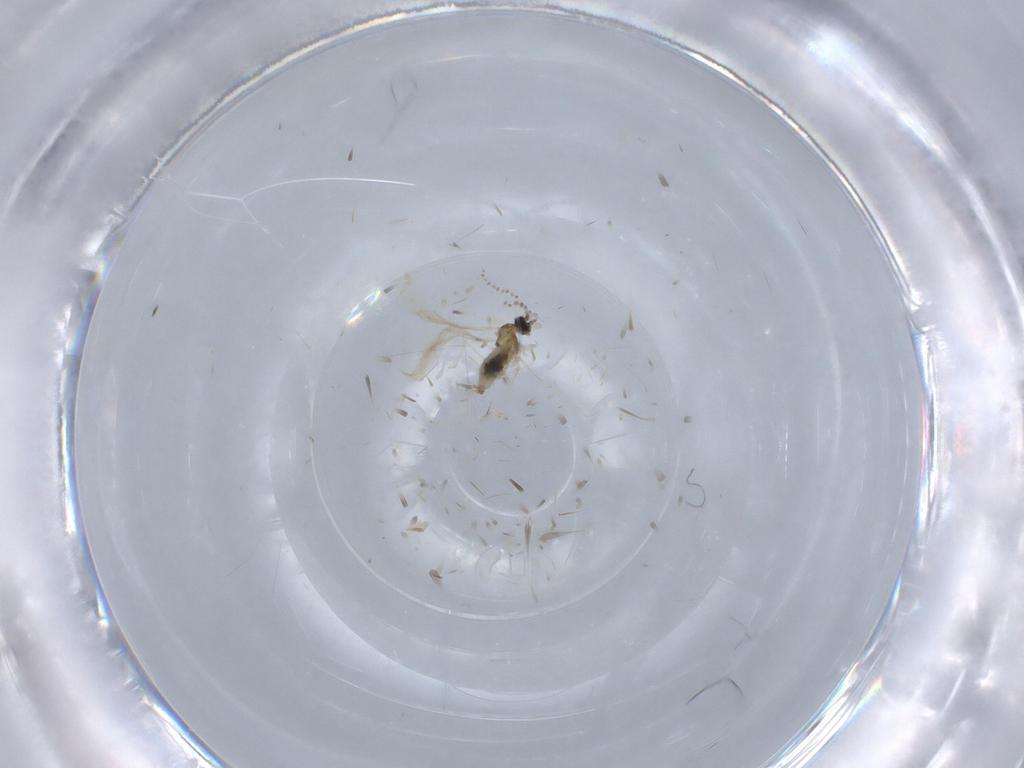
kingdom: Animalia
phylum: Arthropoda
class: Insecta
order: Diptera
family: Cecidomyiidae
